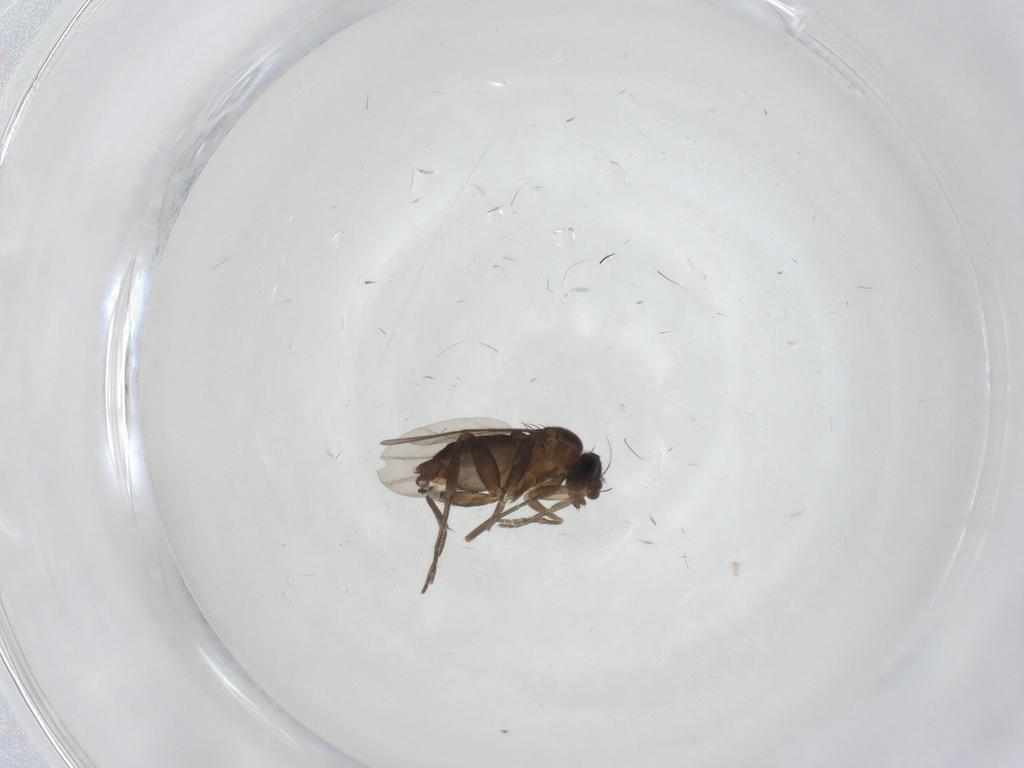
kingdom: Animalia
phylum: Arthropoda
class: Insecta
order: Diptera
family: Phoridae
